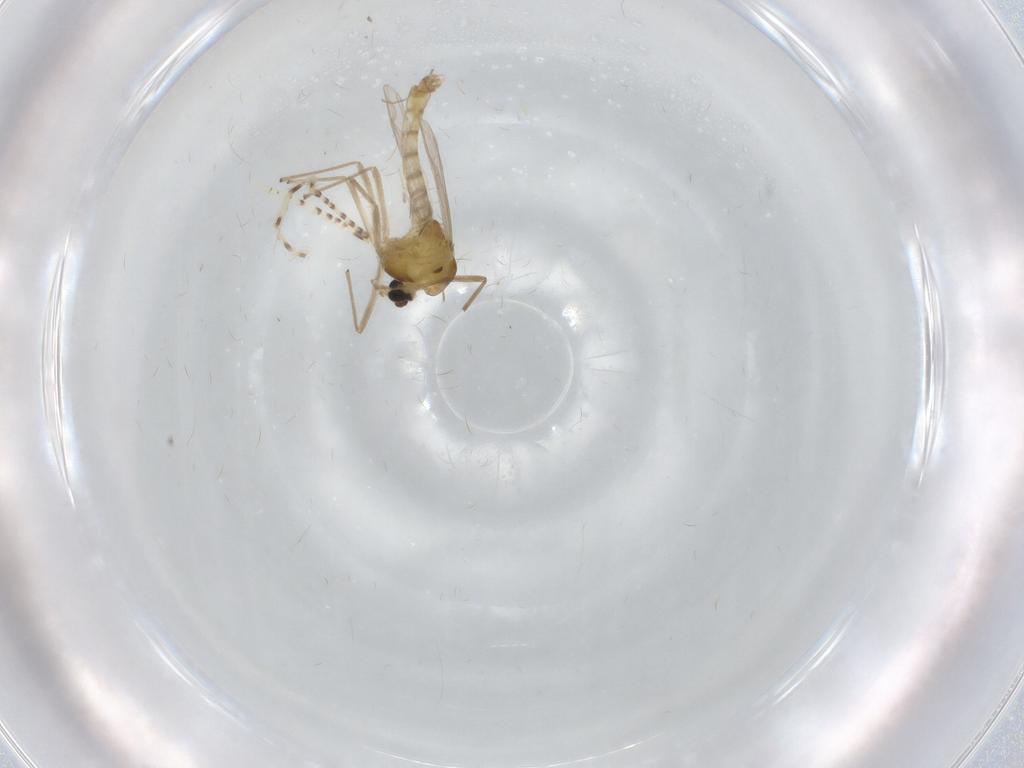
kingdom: Animalia
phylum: Arthropoda
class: Insecta
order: Diptera
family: Chaoboridae
